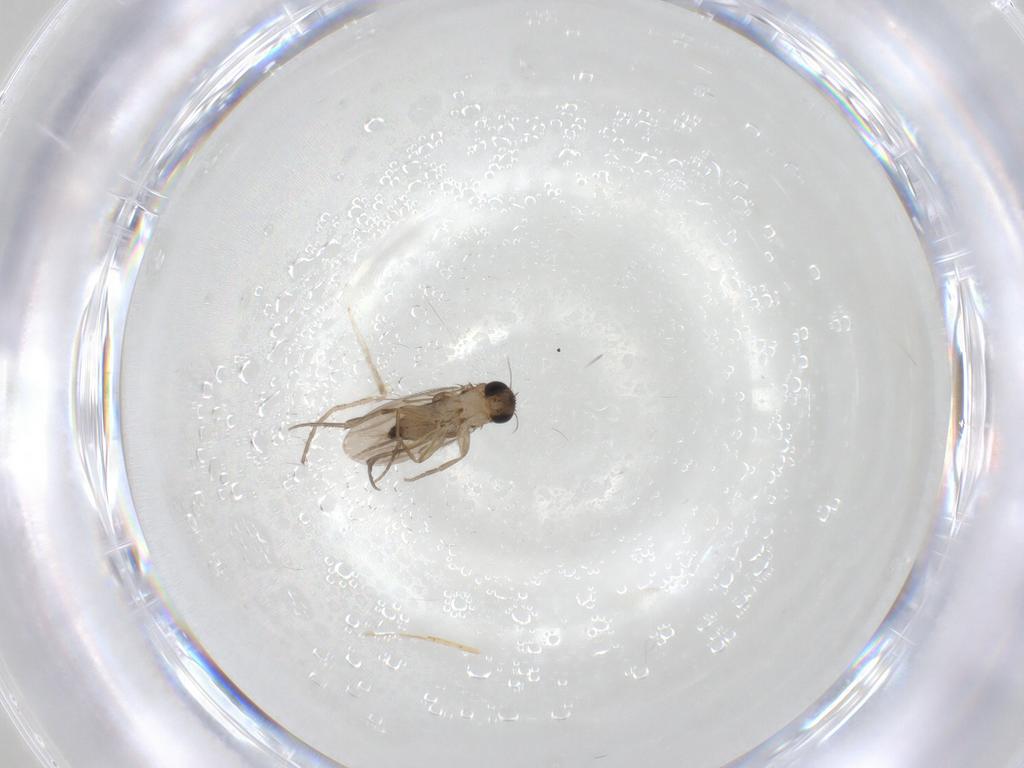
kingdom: Animalia
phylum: Arthropoda
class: Insecta
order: Diptera
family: Phoridae
